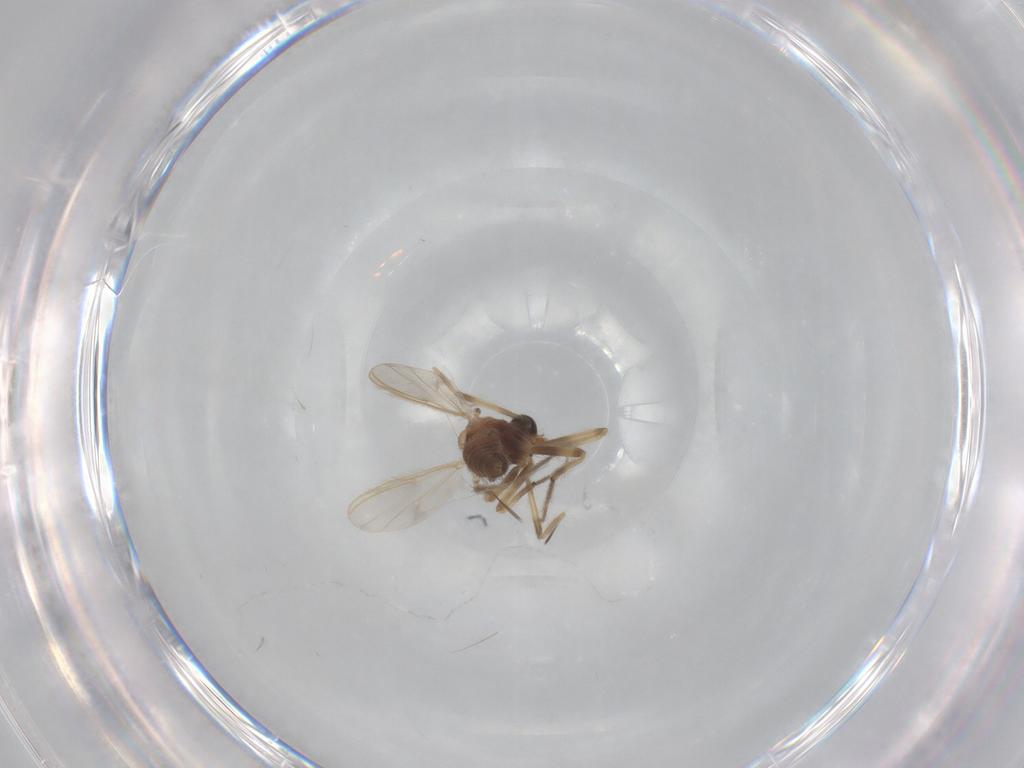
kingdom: Animalia
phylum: Arthropoda
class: Insecta
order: Diptera
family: Chironomidae
